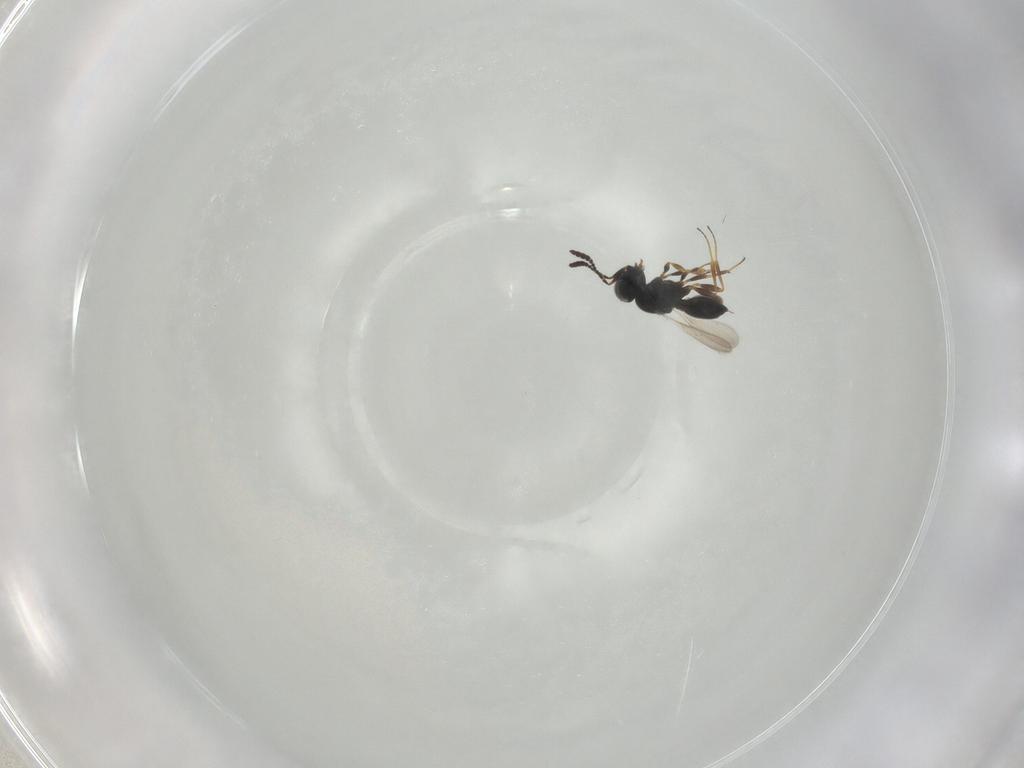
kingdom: Animalia
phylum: Arthropoda
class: Insecta
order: Hymenoptera
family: Scelionidae
